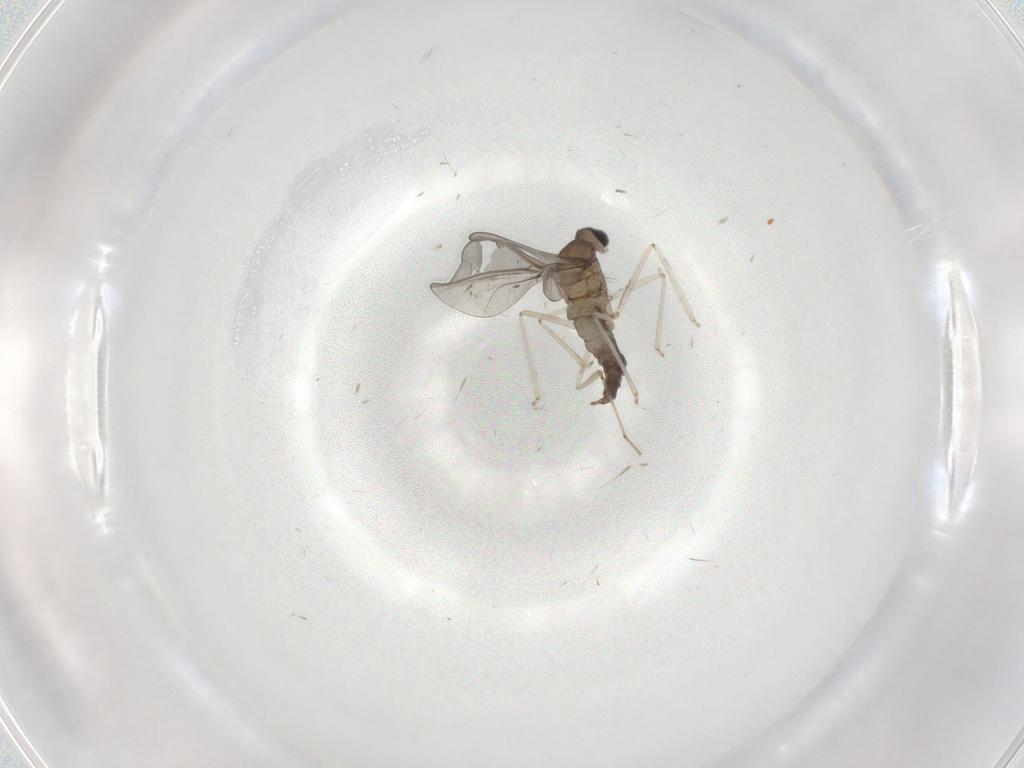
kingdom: Animalia
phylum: Arthropoda
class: Insecta
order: Diptera
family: Cecidomyiidae
